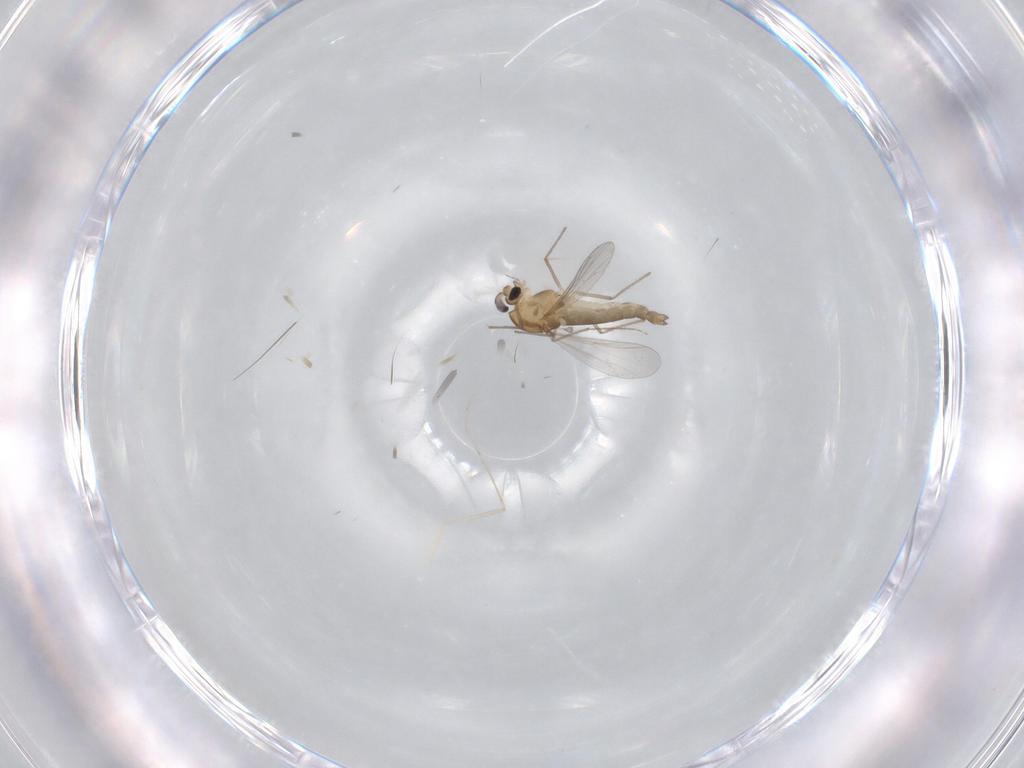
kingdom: Animalia
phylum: Arthropoda
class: Insecta
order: Diptera
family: Cecidomyiidae
